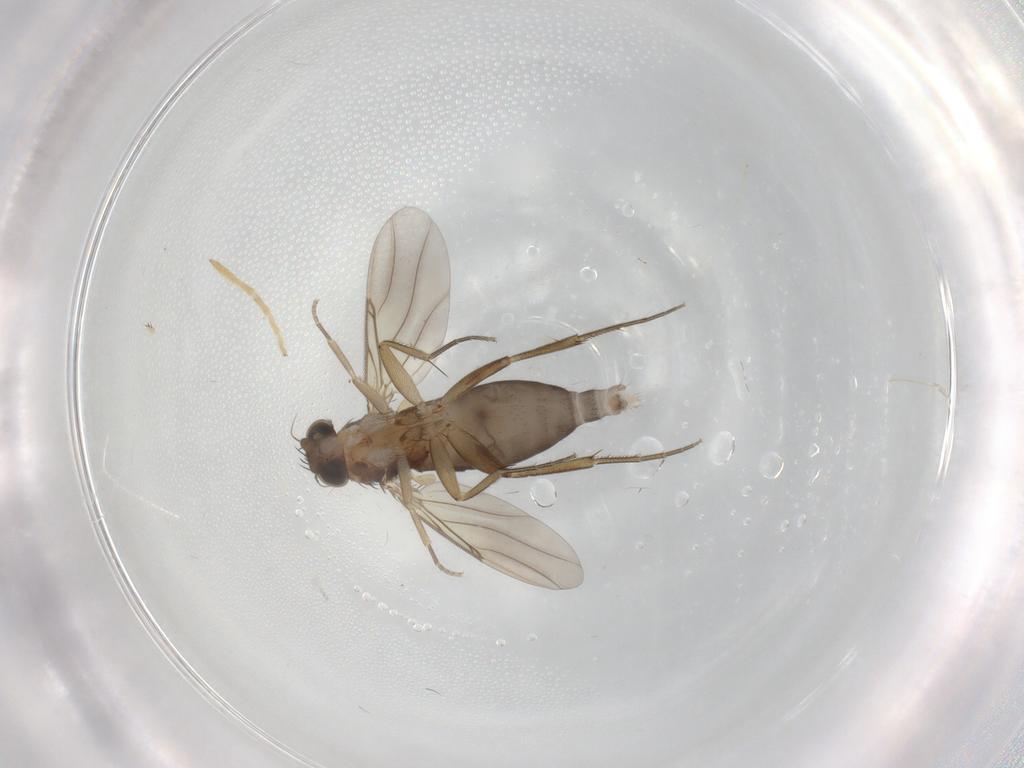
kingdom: Animalia
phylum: Arthropoda
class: Insecta
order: Diptera
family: Phoridae
